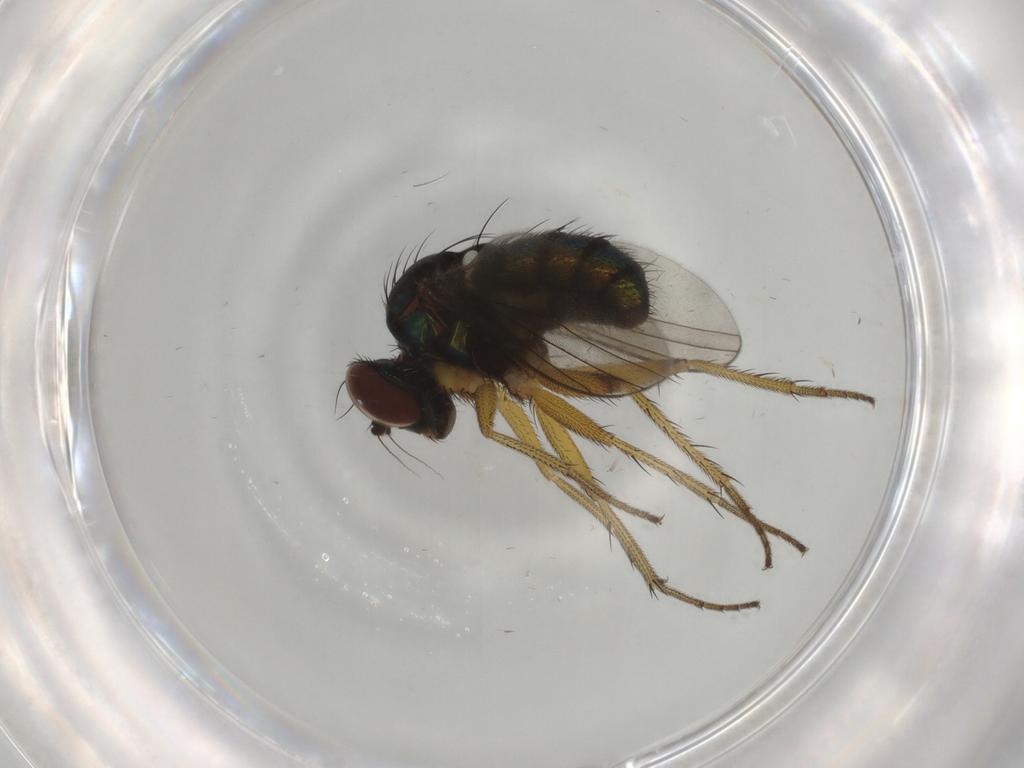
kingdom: Animalia
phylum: Arthropoda
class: Insecta
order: Diptera
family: Dolichopodidae
